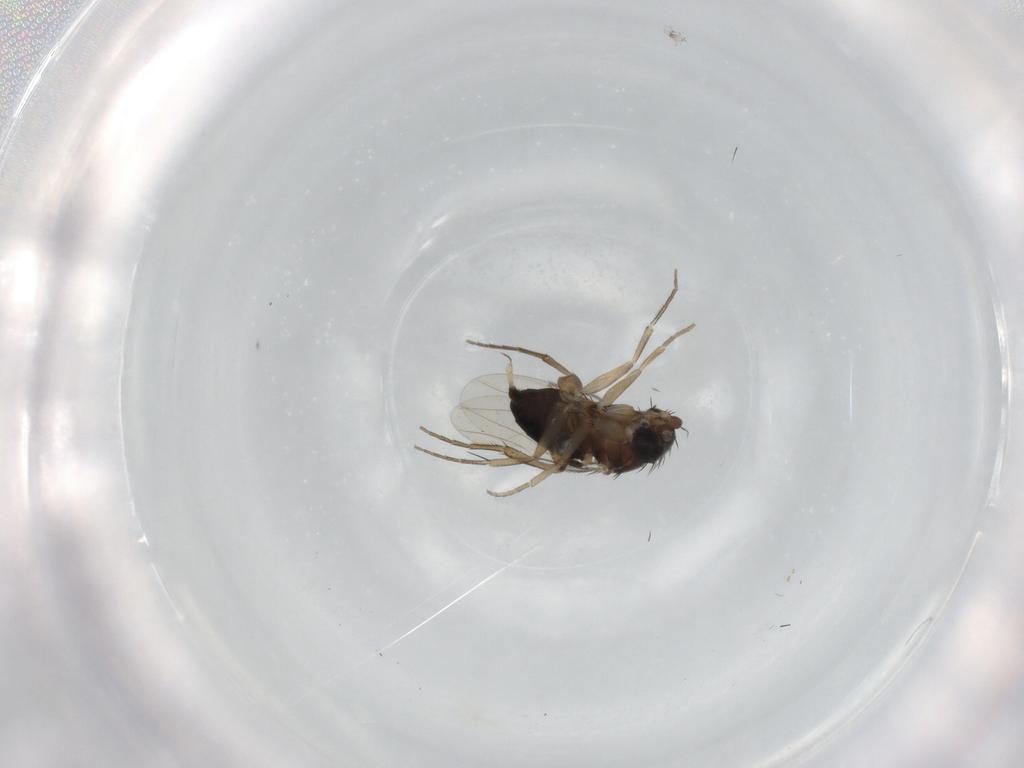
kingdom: Animalia
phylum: Arthropoda
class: Insecta
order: Diptera
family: Phoridae
